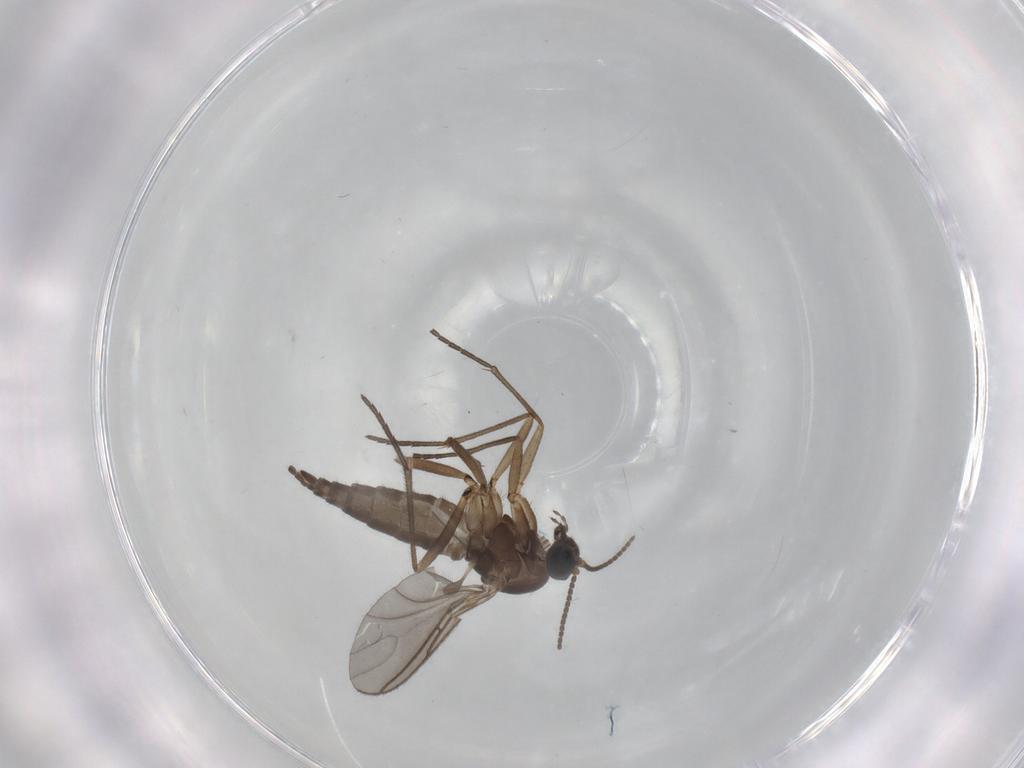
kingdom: Animalia
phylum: Arthropoda
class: Insecta
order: Diptera
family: Sciaridae
